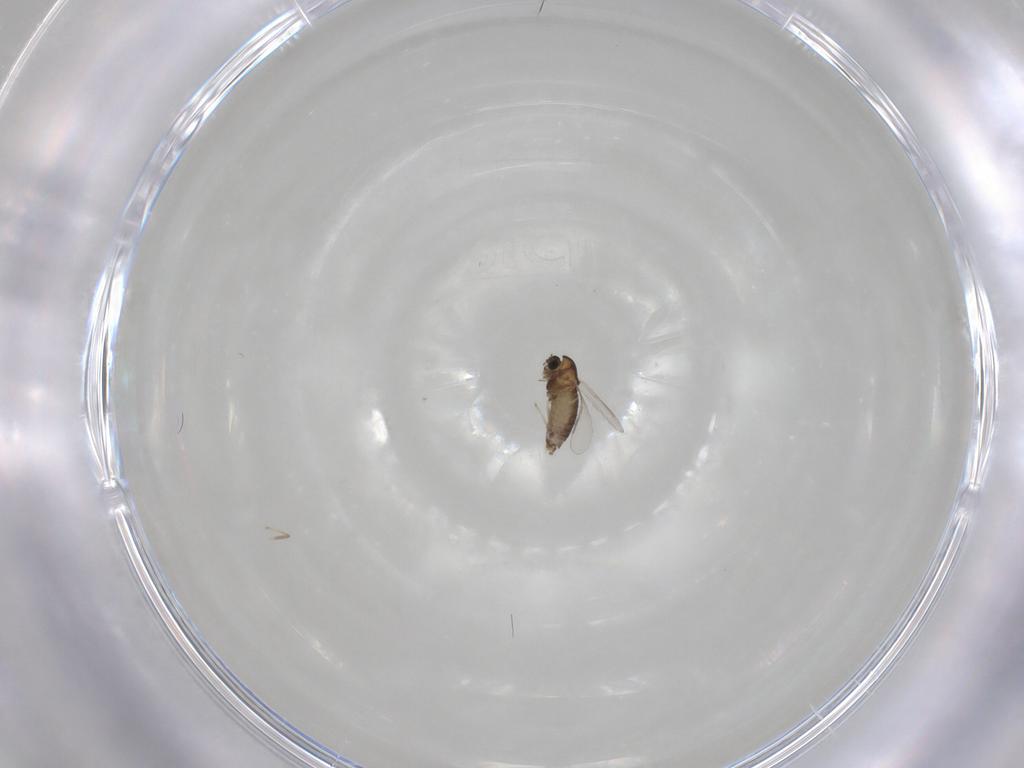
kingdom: Animalia
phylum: Arthropoda
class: Insecta
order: Diptera
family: Chironomidae
